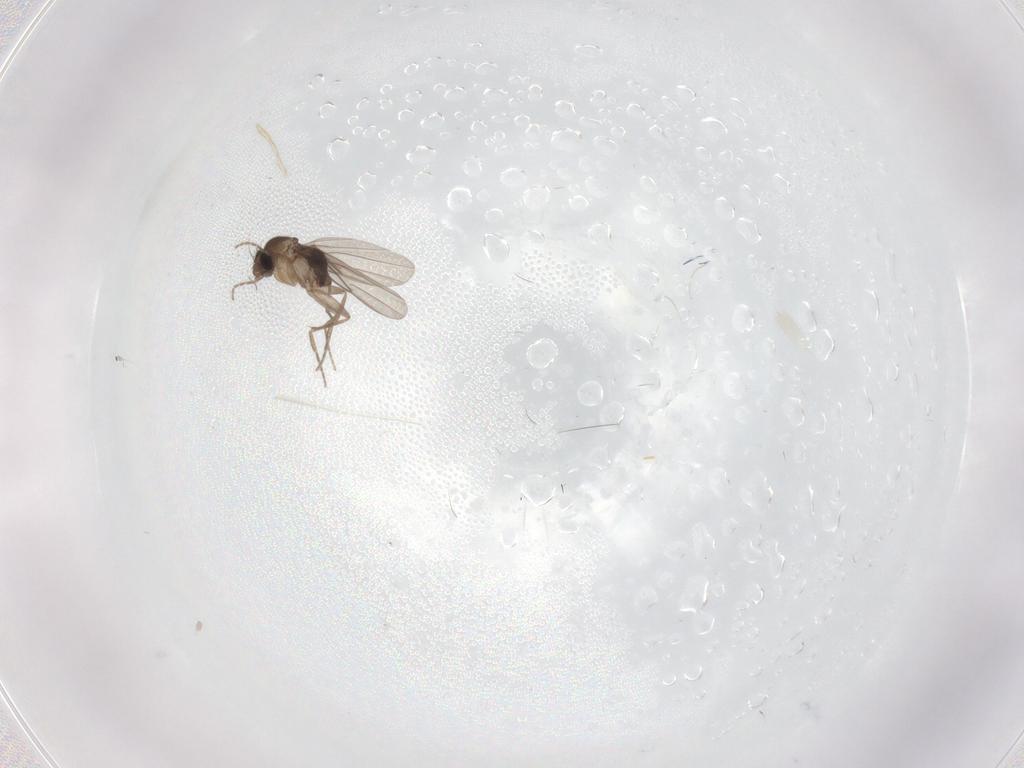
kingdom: Animalia
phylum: Arthropoda
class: Insecta
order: Diptera
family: Phoridae
